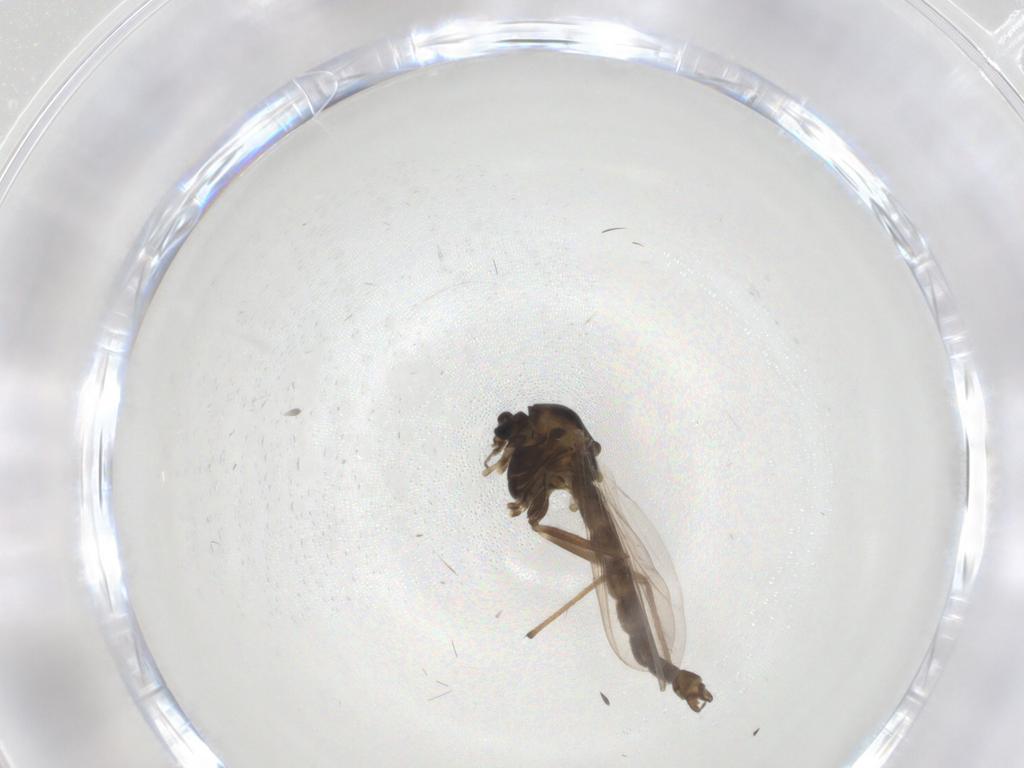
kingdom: Animalia
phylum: Arthropoda
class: Insecta
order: Diptera
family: Chironomidae
